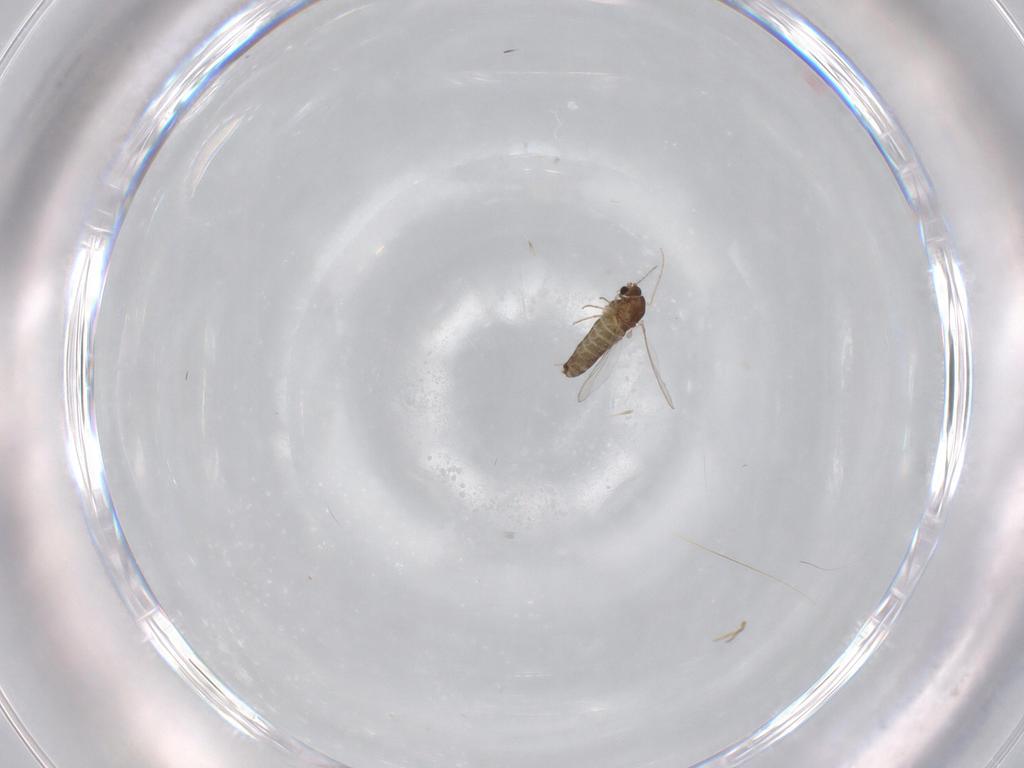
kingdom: Animalia
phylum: Arthropoda
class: Insecta
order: Diptera
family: Chironomidae
